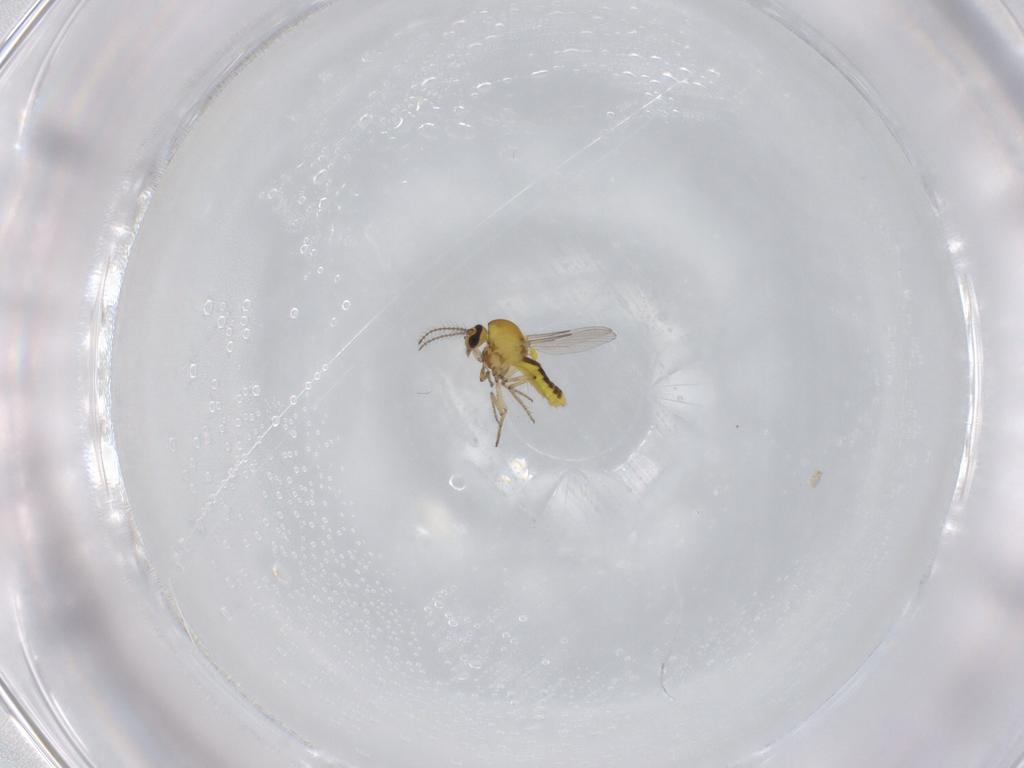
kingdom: Animalia
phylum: Arthropoda
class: Insecta
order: Diptera
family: Ceratopogonidae
